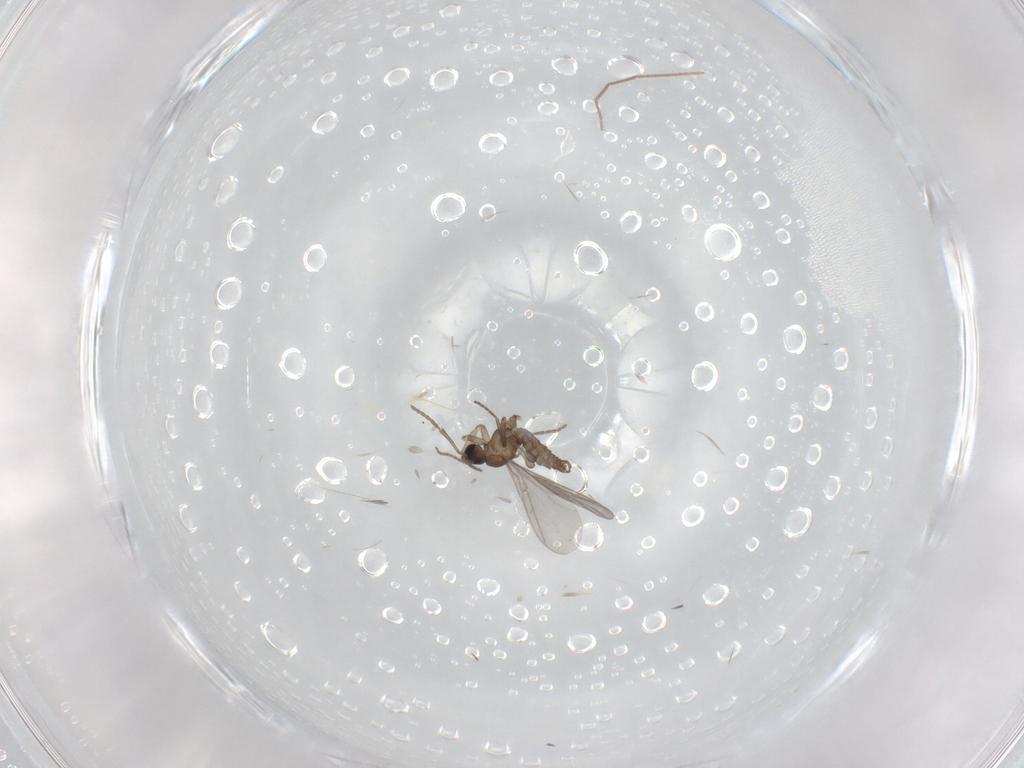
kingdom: Animalia
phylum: Arthropoda
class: Insecta
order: Diptera
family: Chironomidae
